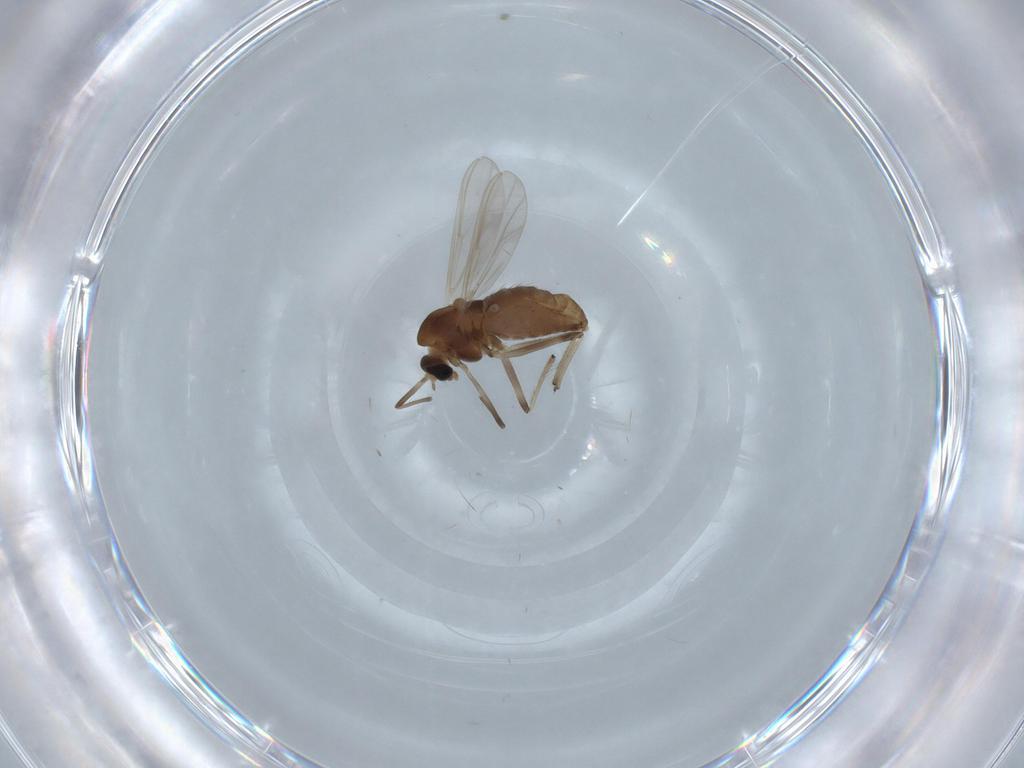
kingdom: Animalia
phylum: Arthropoda
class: Insecta
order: Diptera
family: Chironomidae
